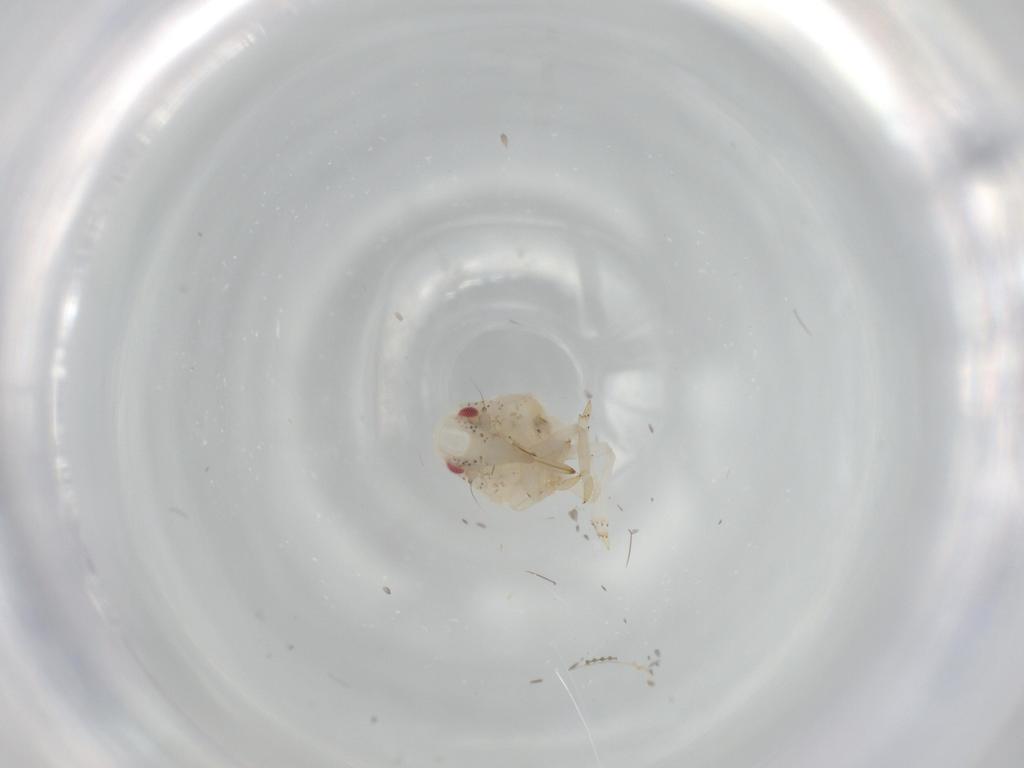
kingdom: Animalia
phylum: Arthropoda
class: Insecta
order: Hemiptera
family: Acanaloniidae
